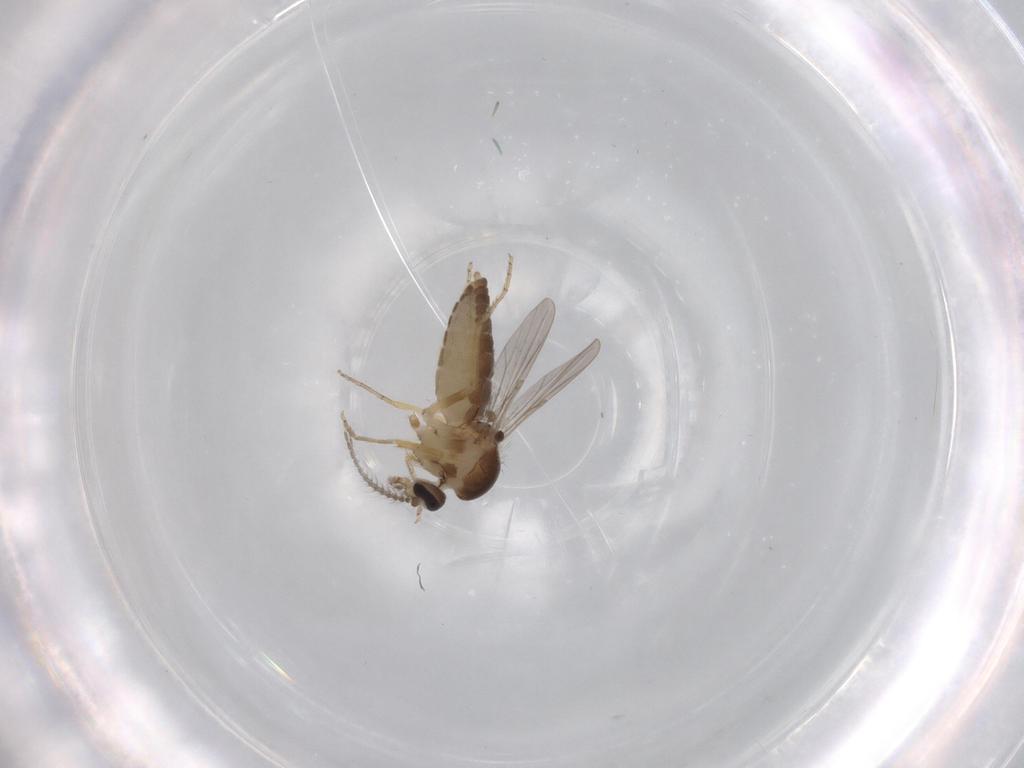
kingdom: Animalia
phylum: Arthropoda
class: Insecta
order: Diptera
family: Ceratopogonidae
